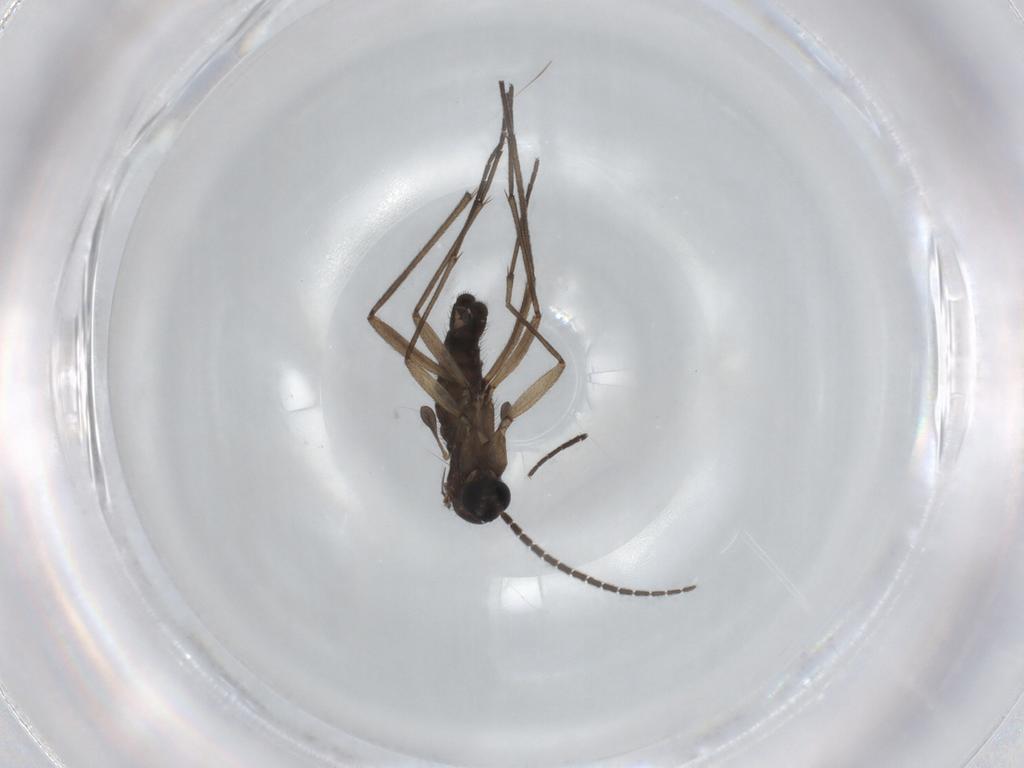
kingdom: Animalia
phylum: Arthropoda
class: Insecta
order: Diptera
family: Sciaridae
